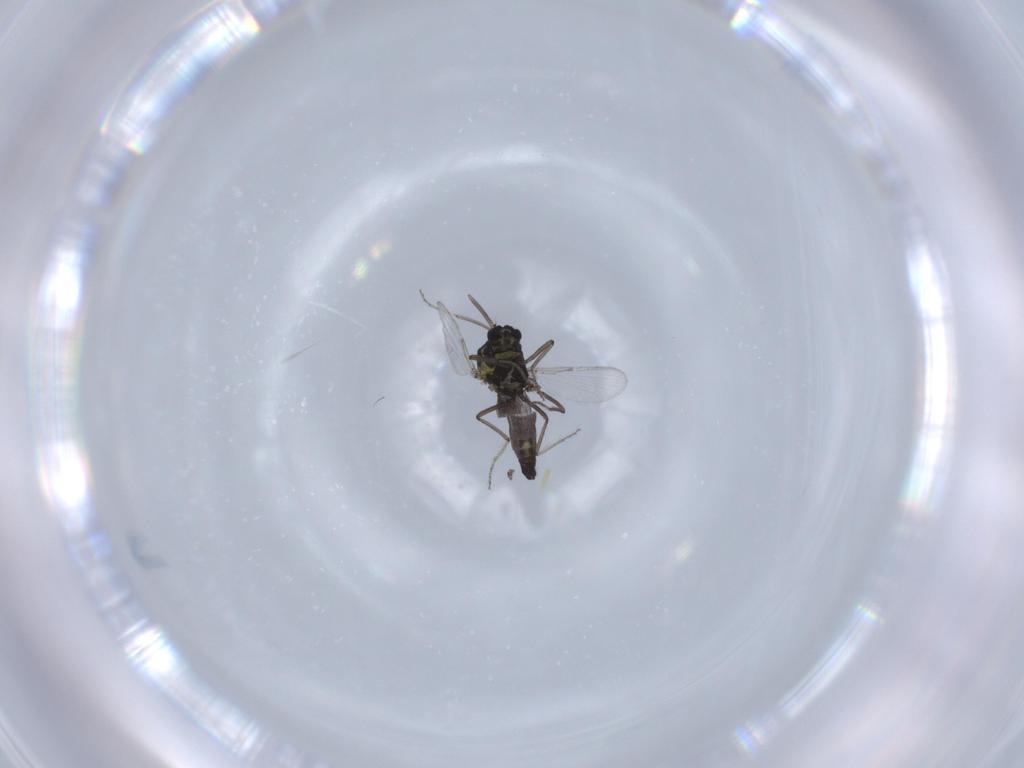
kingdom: Animalia
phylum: Arthropoda
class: Insecta
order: Diptera
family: Ceratopogonidae
